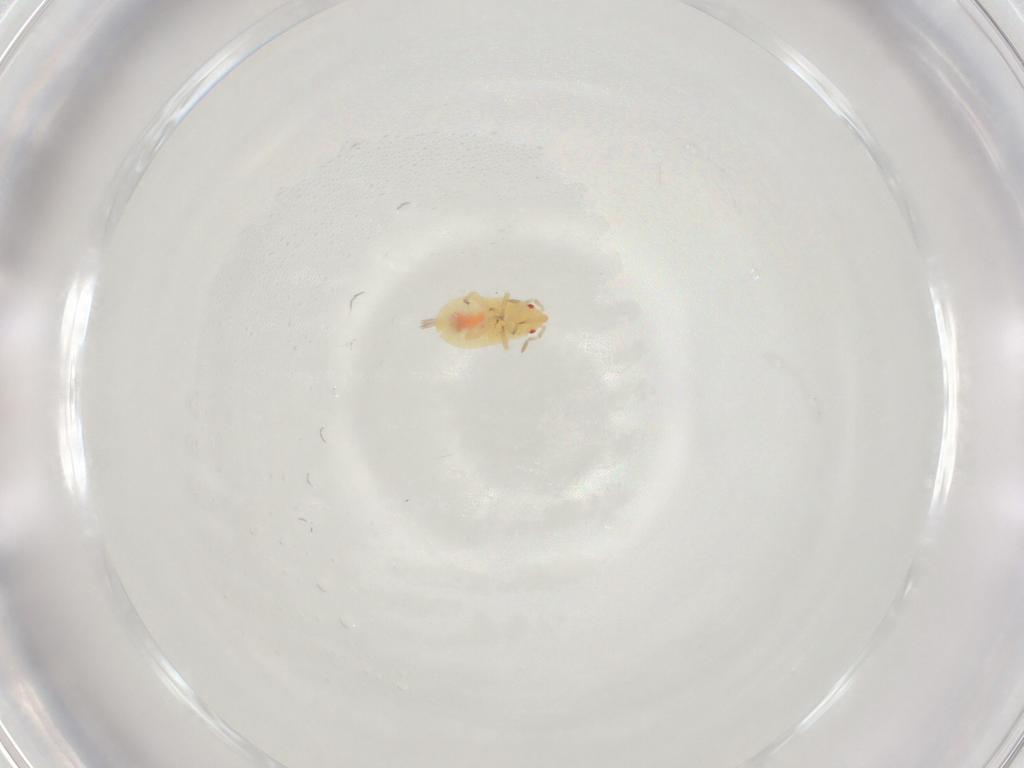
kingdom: Animalia
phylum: Arthropoda
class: Insecta
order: Hemiptera
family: Anthocoridae
